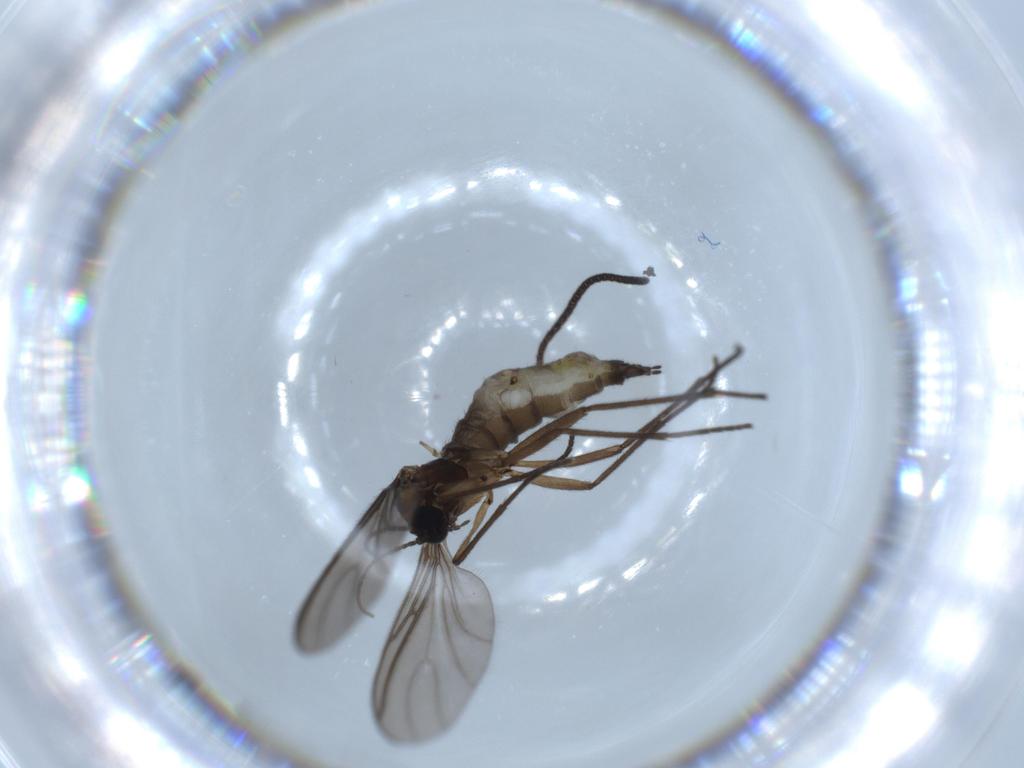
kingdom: Animalia
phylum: Arthropoda
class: Insecta
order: Diptera
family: Sciaridae
